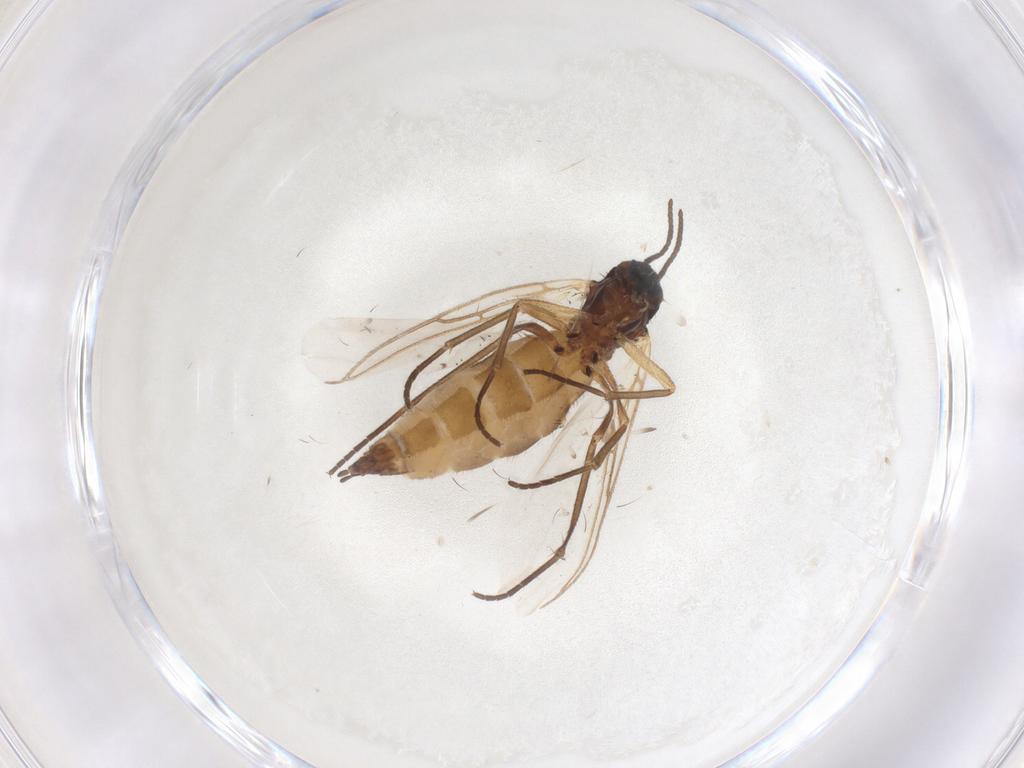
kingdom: Animalia
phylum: Arthropoda
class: Insecta
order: Diptera
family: Sciaridae
